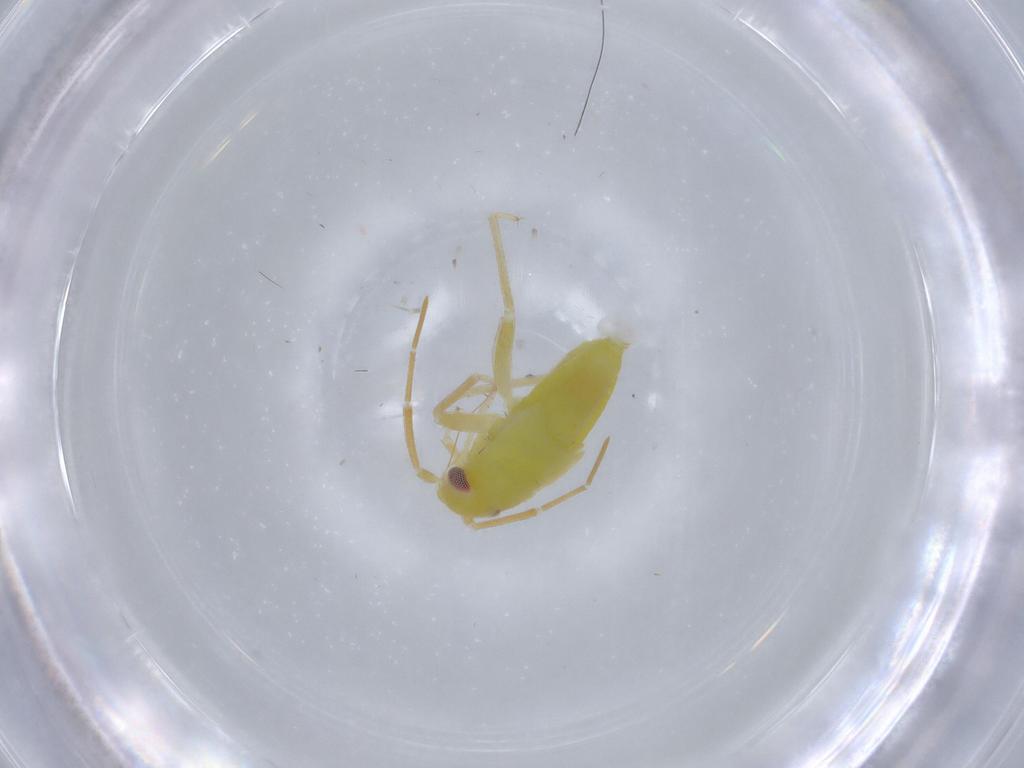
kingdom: Animalia
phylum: Arthropoda
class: Insecta
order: Hemiptera
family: Miridae
